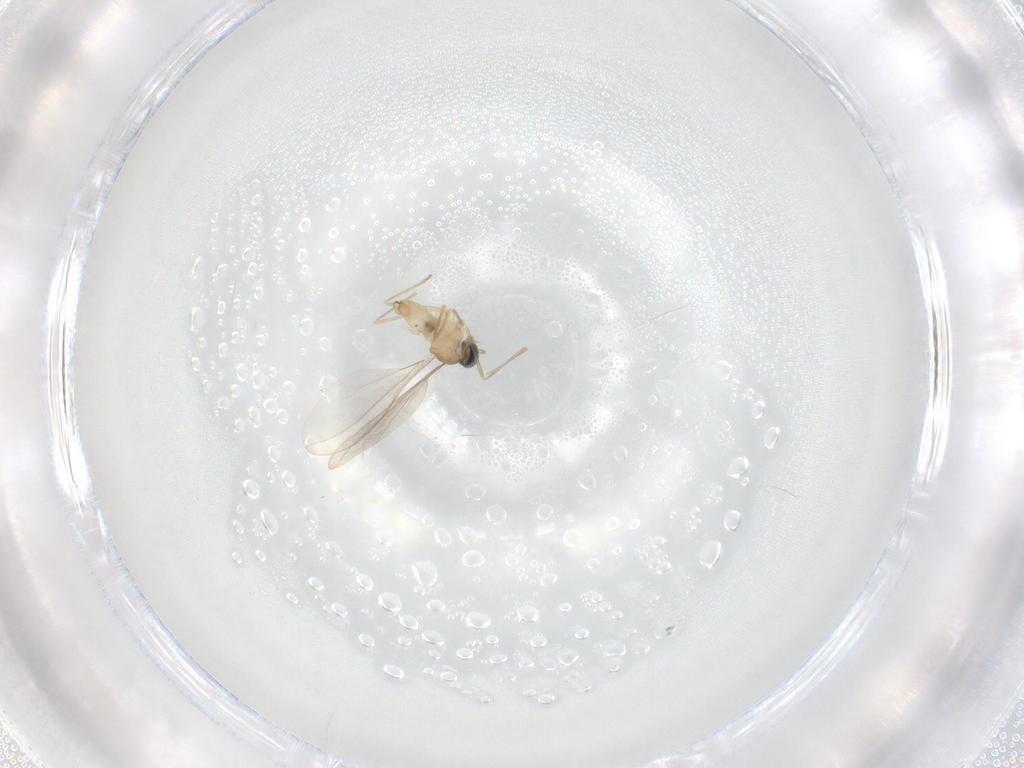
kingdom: Animalia
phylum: Arthropoda
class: Insecta
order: Diptera
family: Cecidomyiidae
